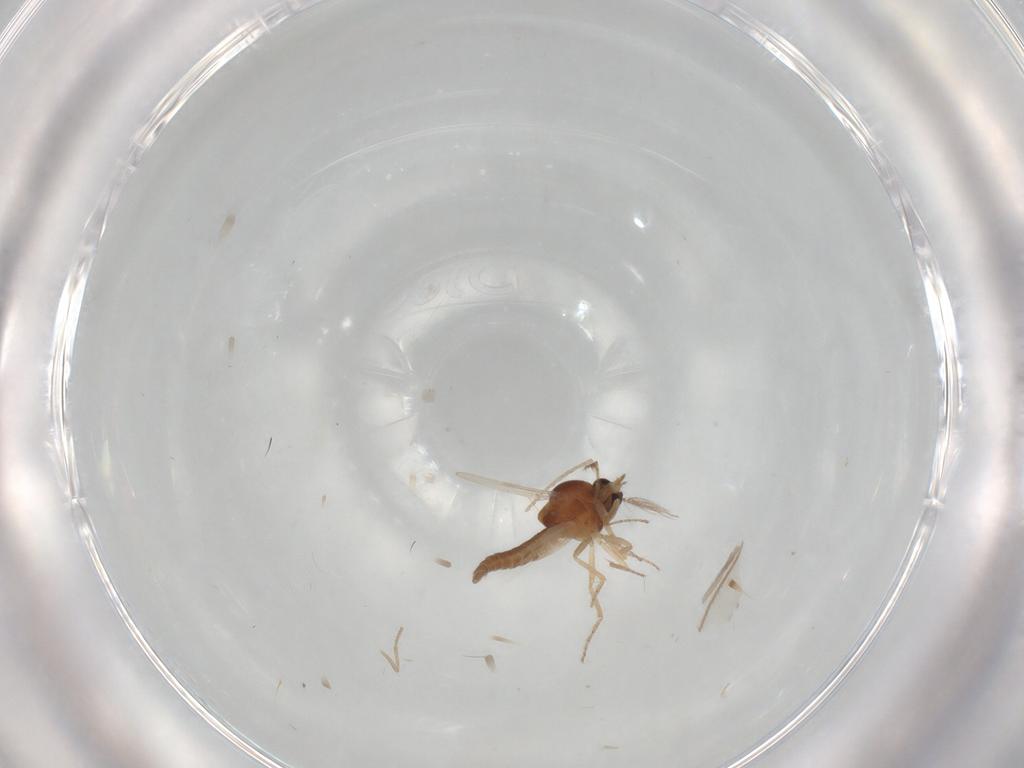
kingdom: Animalia
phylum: Arthropoda
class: Insecta
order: Diptera
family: Ceratopogonidae
